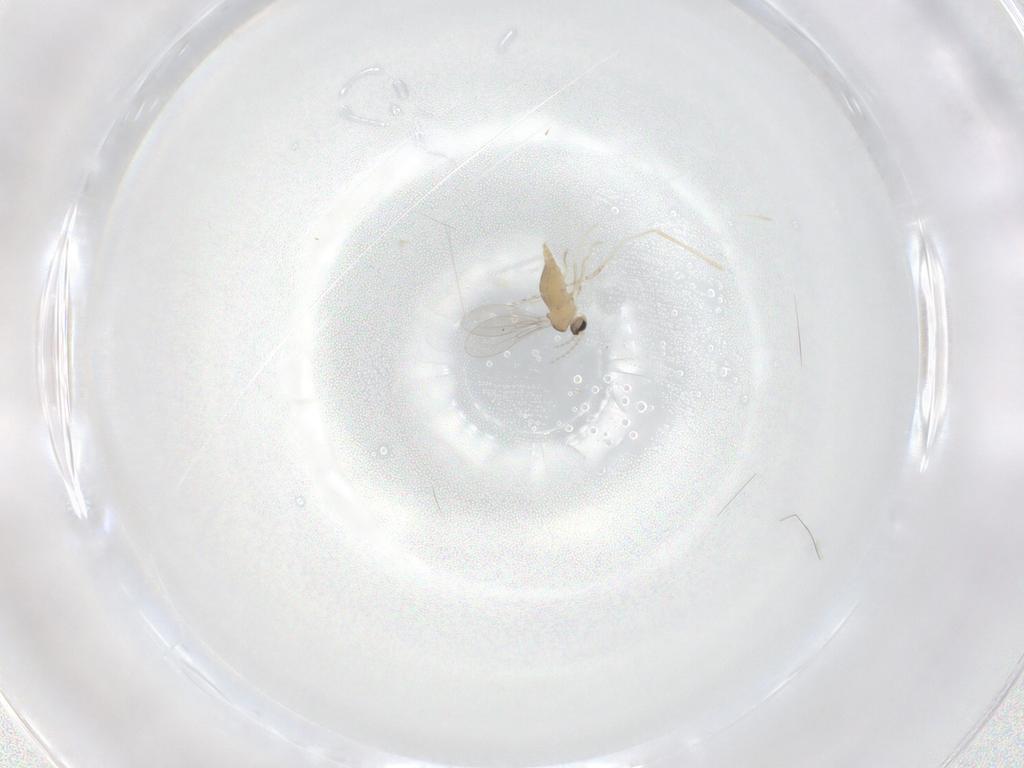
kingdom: Animalia
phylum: Arthropoda
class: Insecta
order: Diptera
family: Cecidomyiidae
